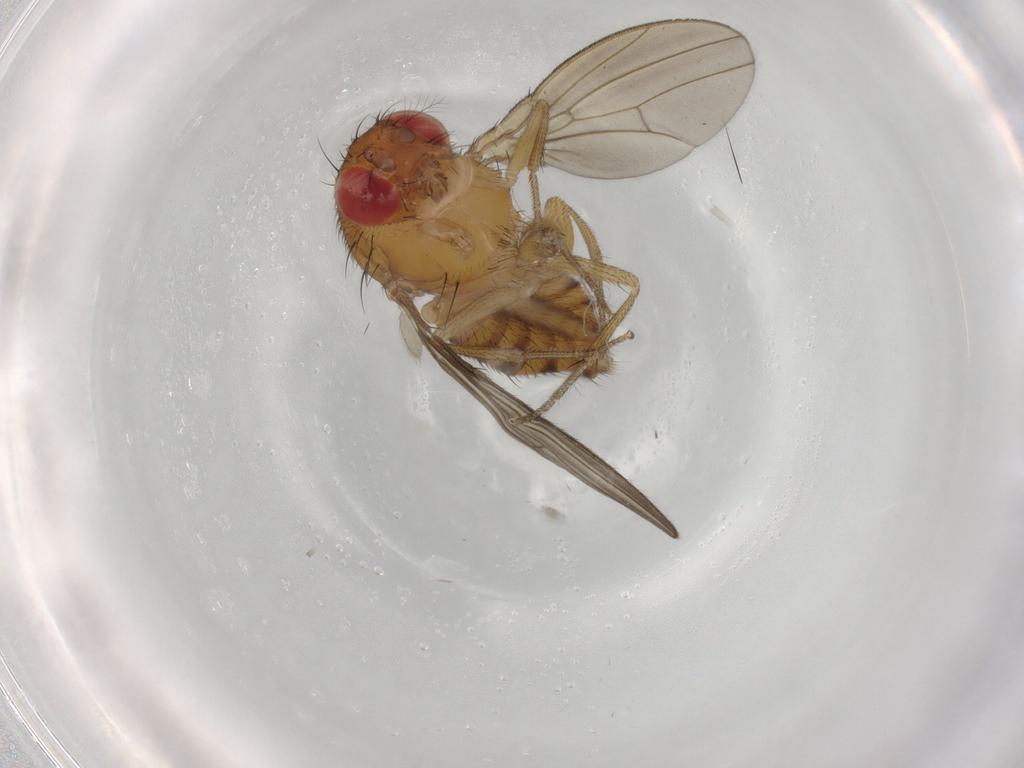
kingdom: Animalia
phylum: Arthropoda
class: Insecta
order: Diptera
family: Drosophilidae
